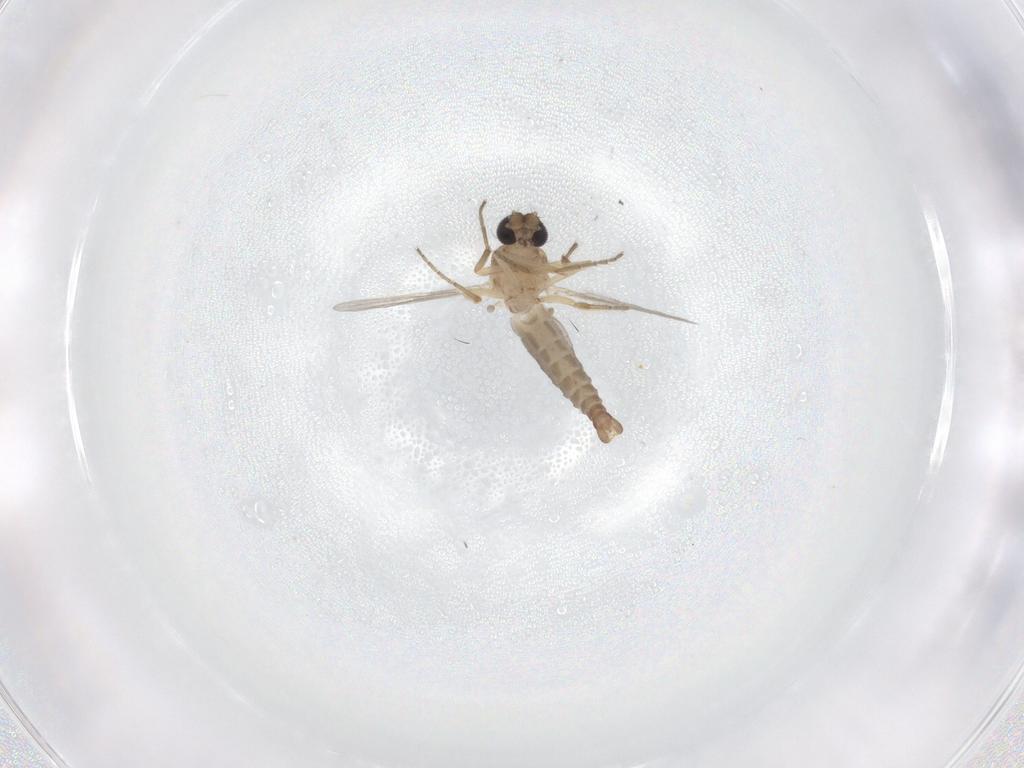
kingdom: Animalia
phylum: Arthropoda
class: Insecta
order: Diptera
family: Ceratopogonidae
